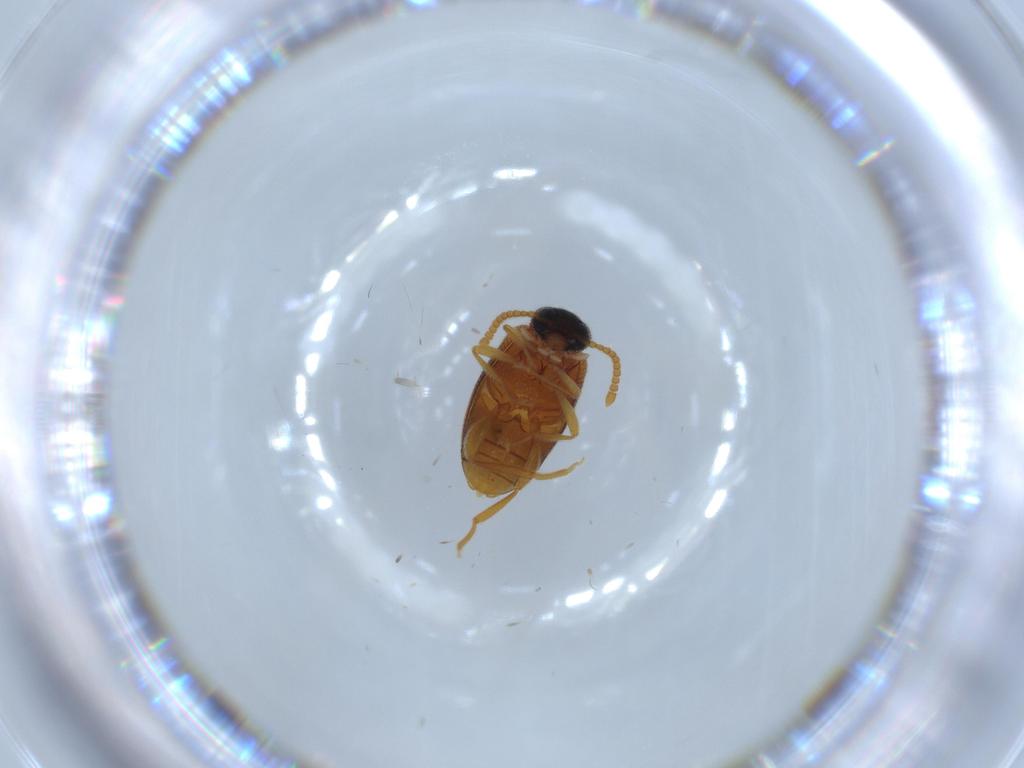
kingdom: Animalia
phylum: Arthropoda
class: Insecta
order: Coleoptera
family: Aderidae
